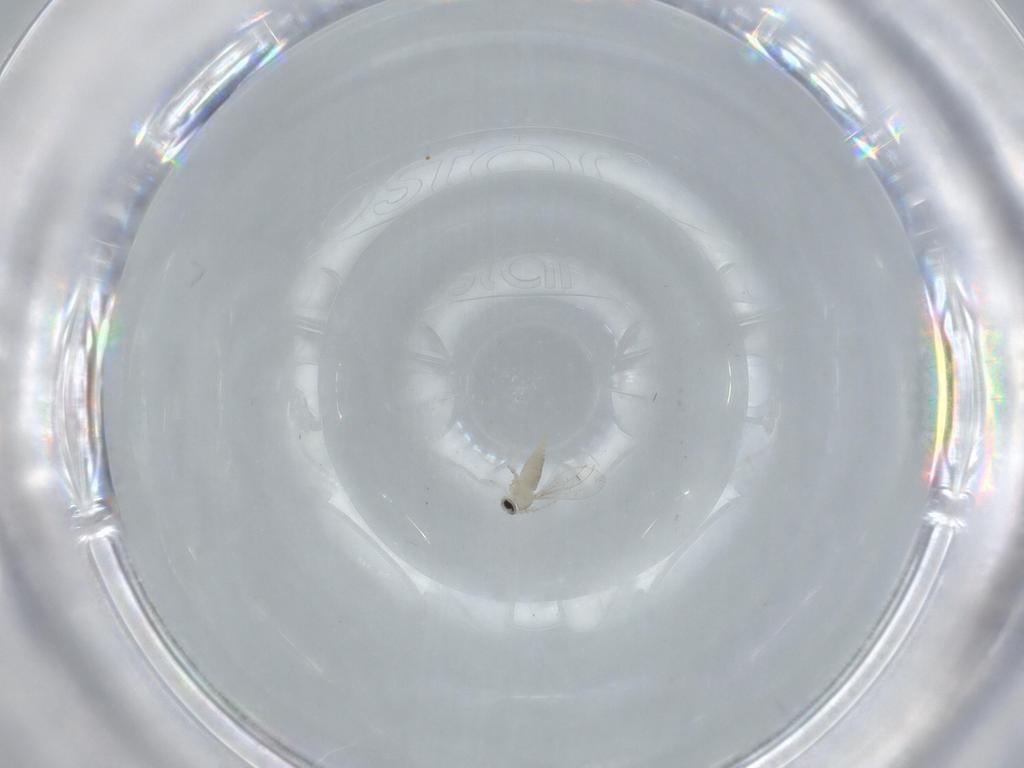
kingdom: Animalia
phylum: Arthropoda
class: Insecta
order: Diptera
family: Cecidomyiidae
